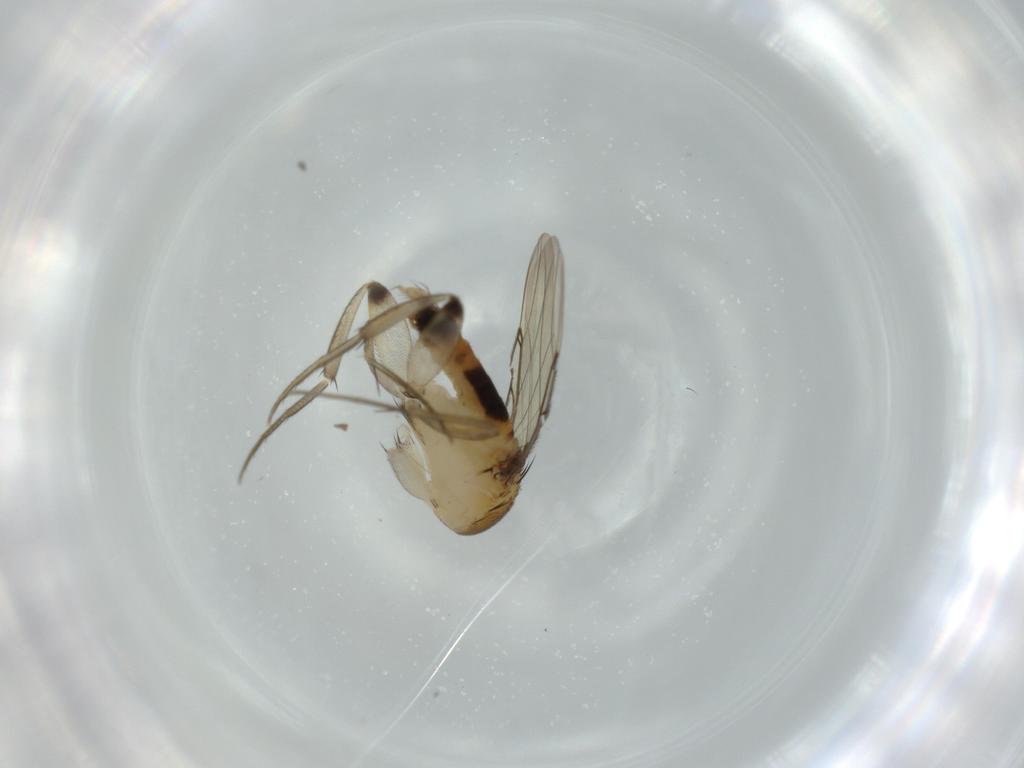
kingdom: Animalia
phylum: Arthropoda
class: Insecta
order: Diptera
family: Phoridae
